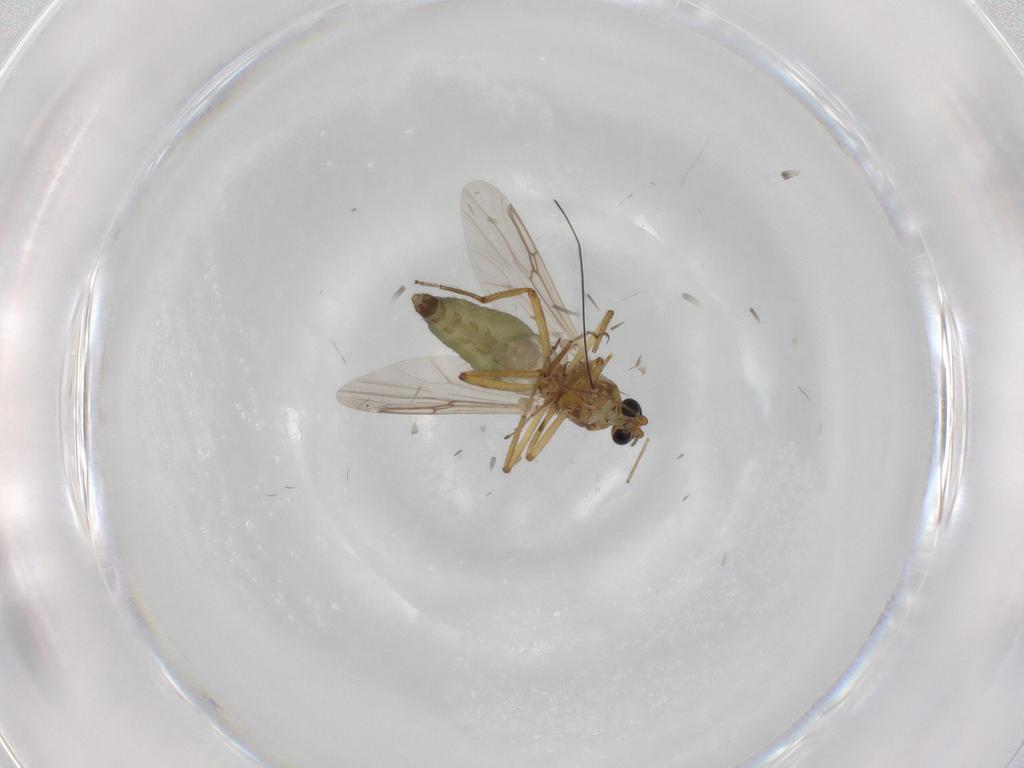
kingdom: Animalia
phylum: Arthropoda
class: Insecta
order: Diptera
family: Ceratopogonidae
